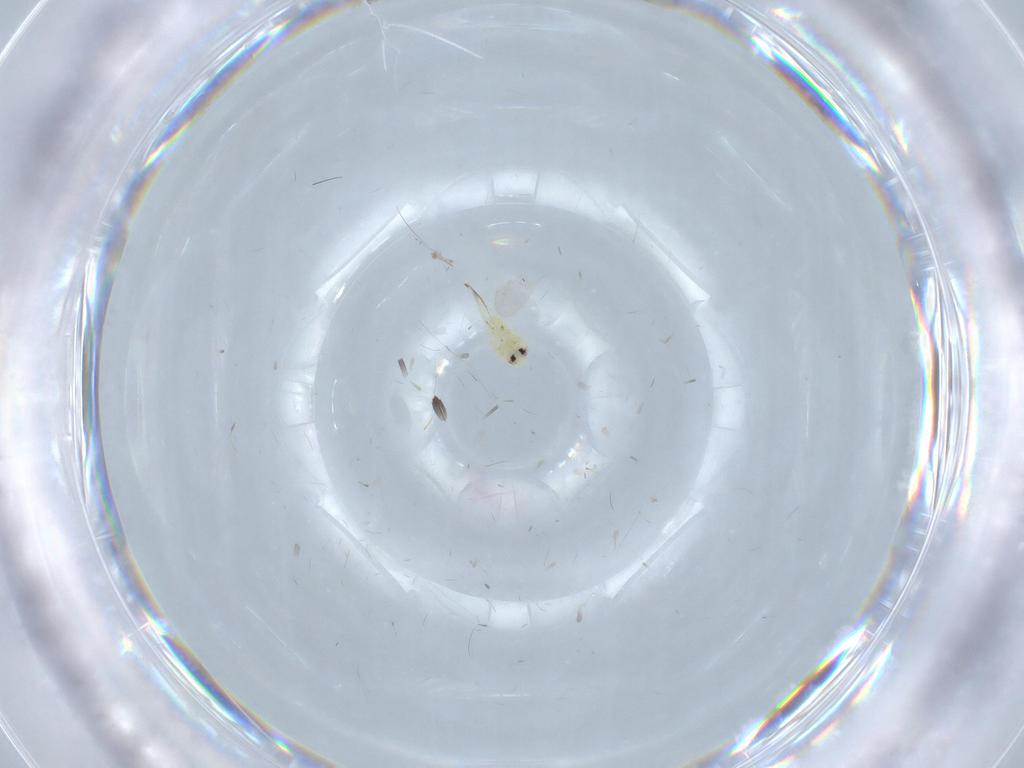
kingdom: Animalia
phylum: Arthropoda
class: Insecta
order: Hemiptera
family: Aleyrodidae
